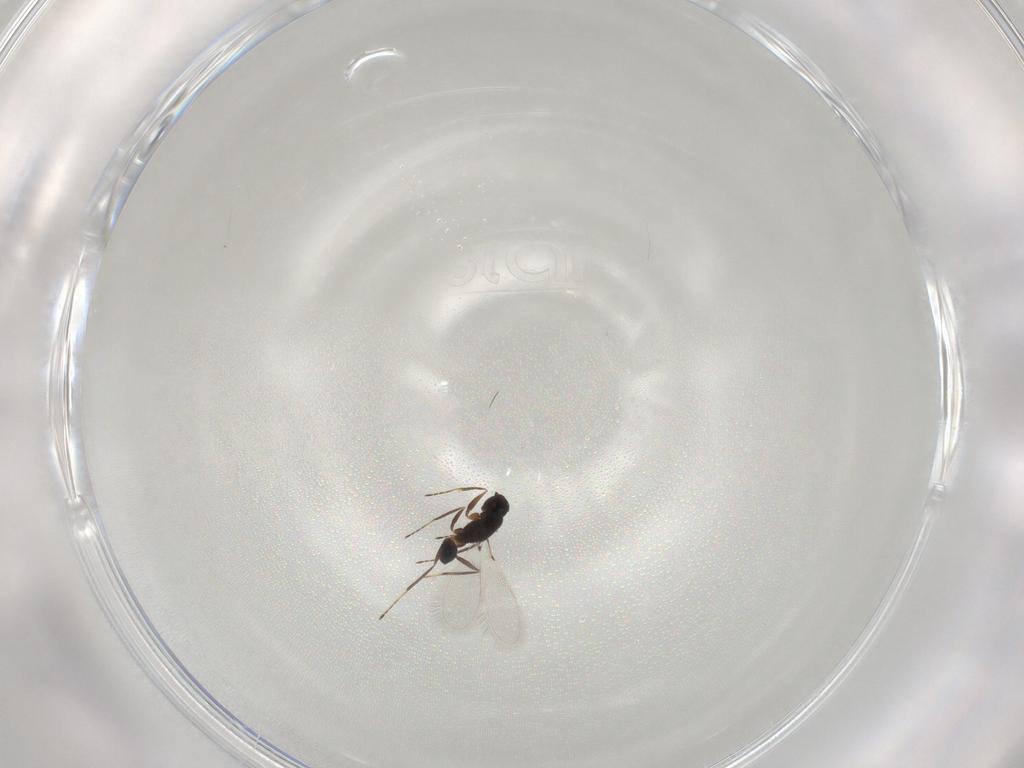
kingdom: Animalia
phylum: Arthropoda
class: Insecta
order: Hymenoptera
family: Mymaridae
